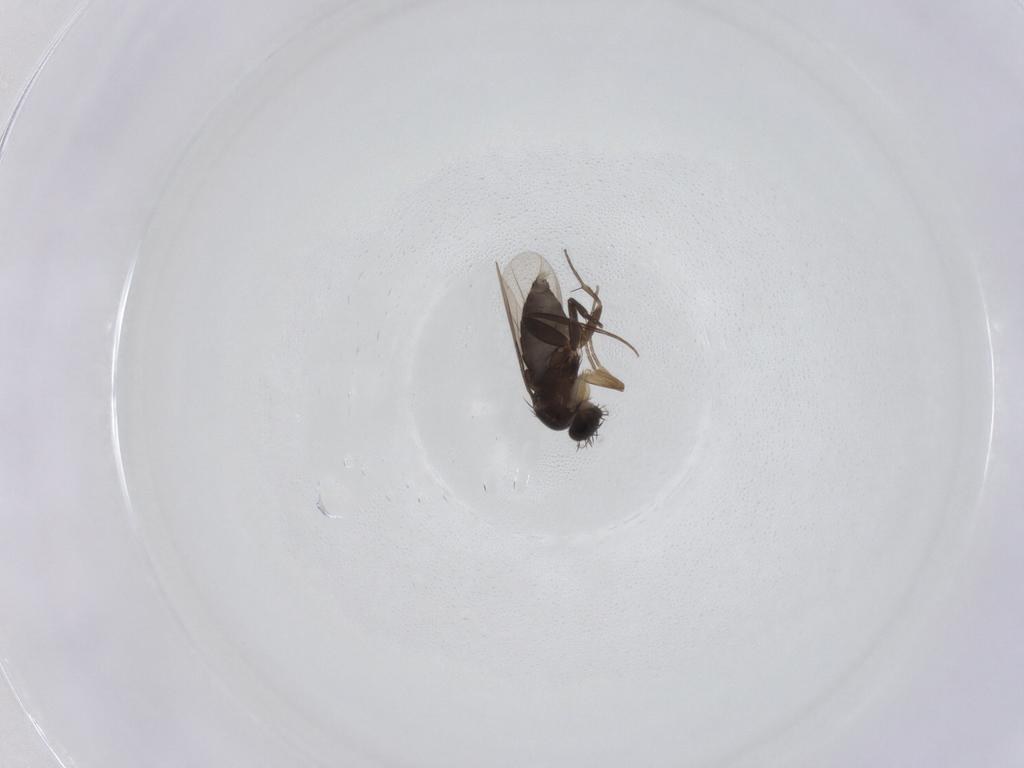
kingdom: Animalia
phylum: Arthropoda
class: Insecta
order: Diptera
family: Phoridae
